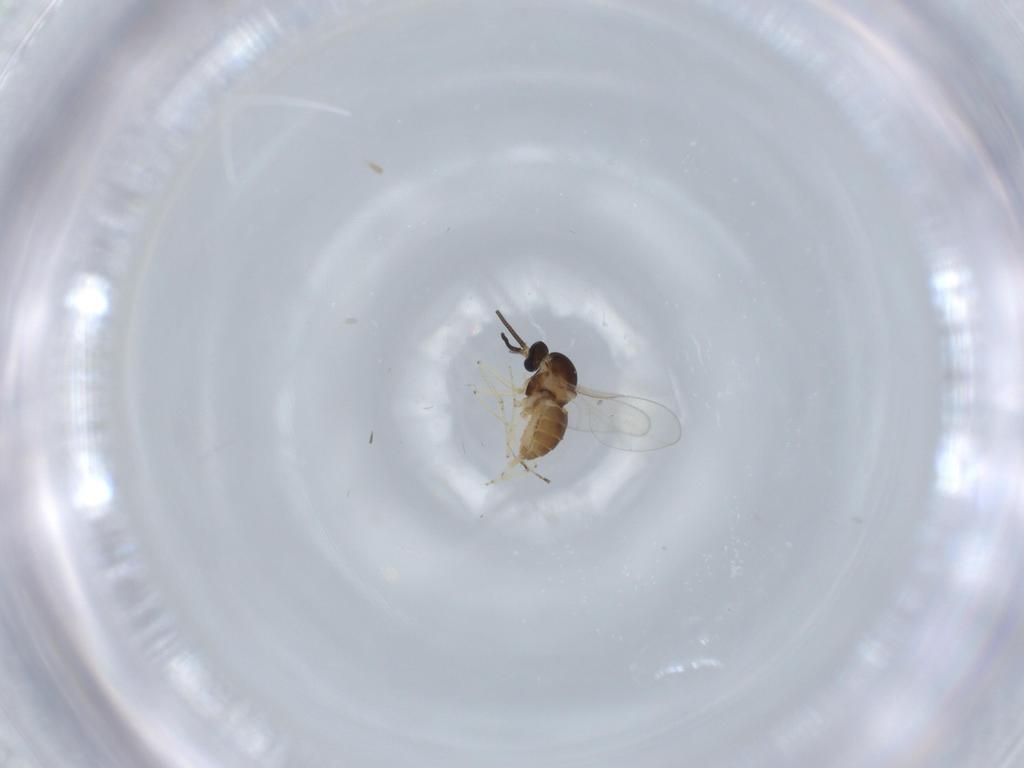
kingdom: Animalia
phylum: Arthropoda
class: Insecta
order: Diptera
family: Cecidomyiidae
